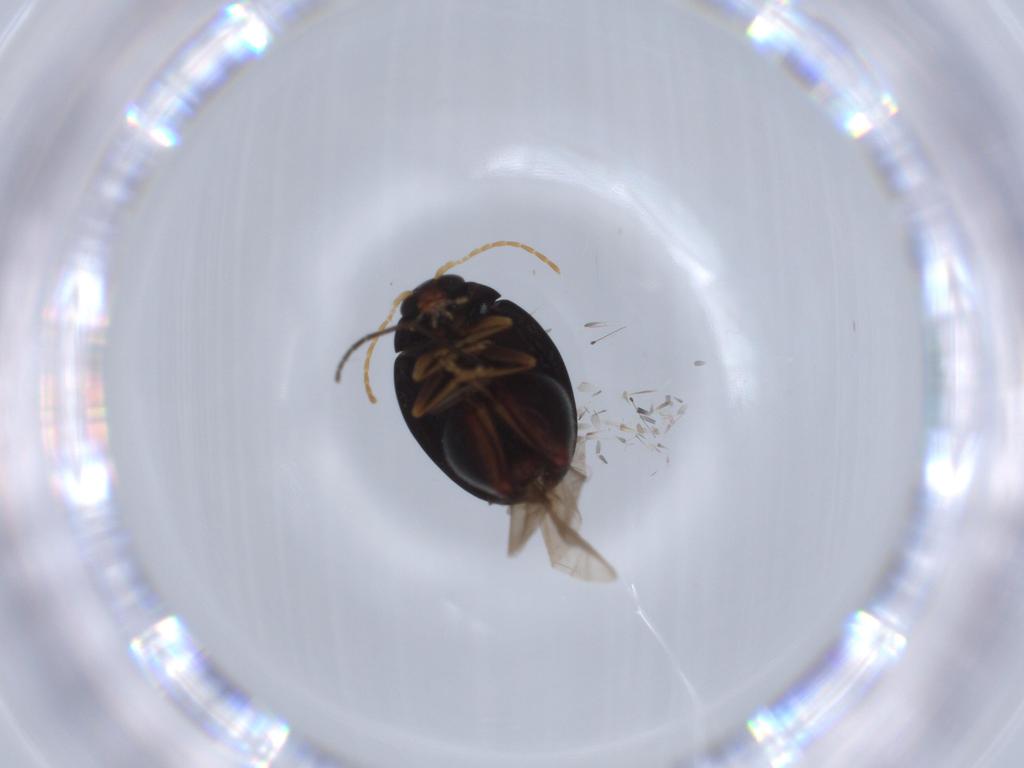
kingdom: Animalia
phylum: Arthropoda
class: Insecta
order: Coleoptera
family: Chrysomelidae
